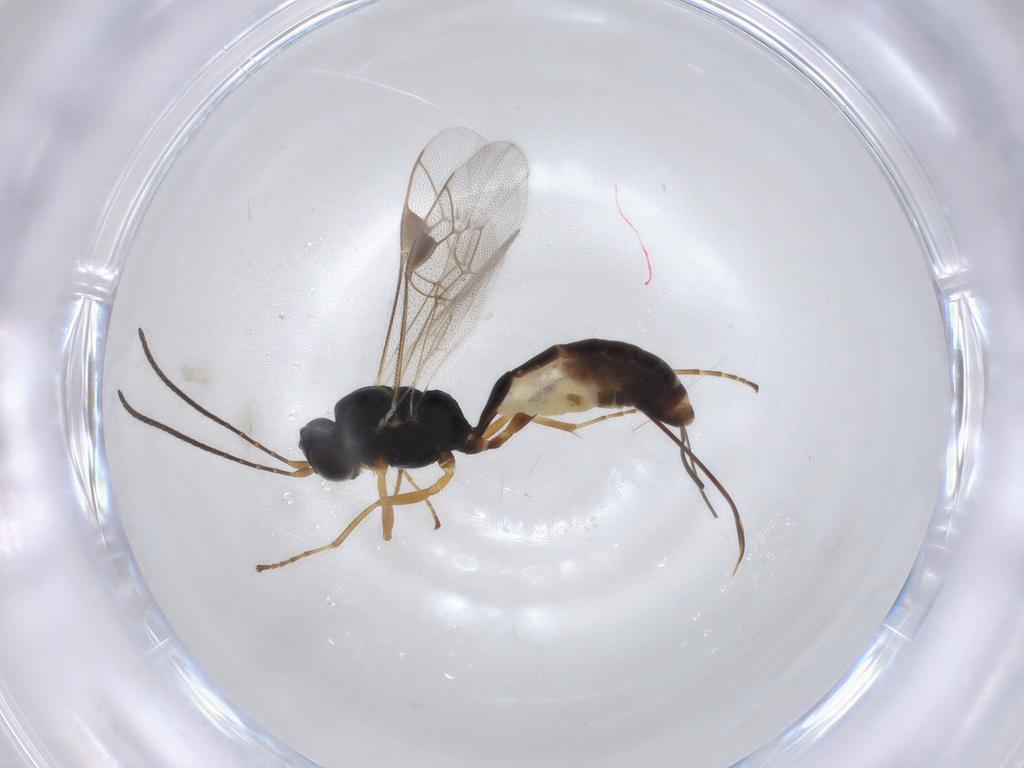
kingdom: Animalia
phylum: Arthropoda
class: Insecta
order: Hymenoptera
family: Ichneumonidae
